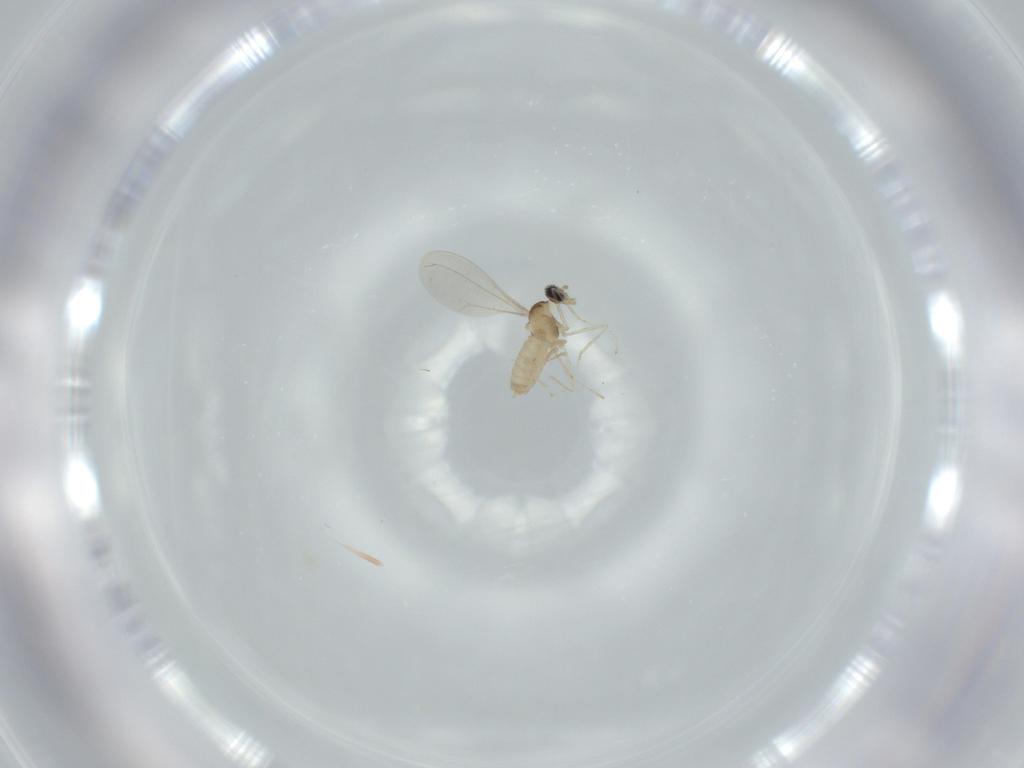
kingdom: Animalia
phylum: Arthropoda
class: Insecta
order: Diptera
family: Cecidomyiidae
